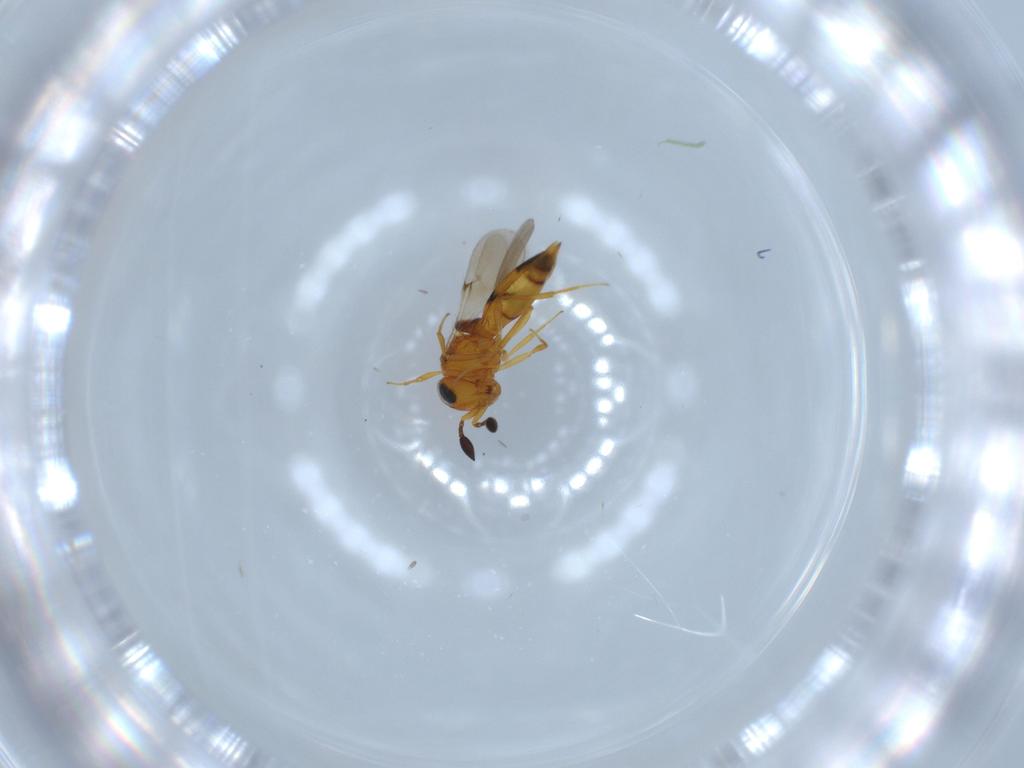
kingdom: Animalia
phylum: Arthropoda
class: Insecta
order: Hymenoptera
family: Scelionidae
